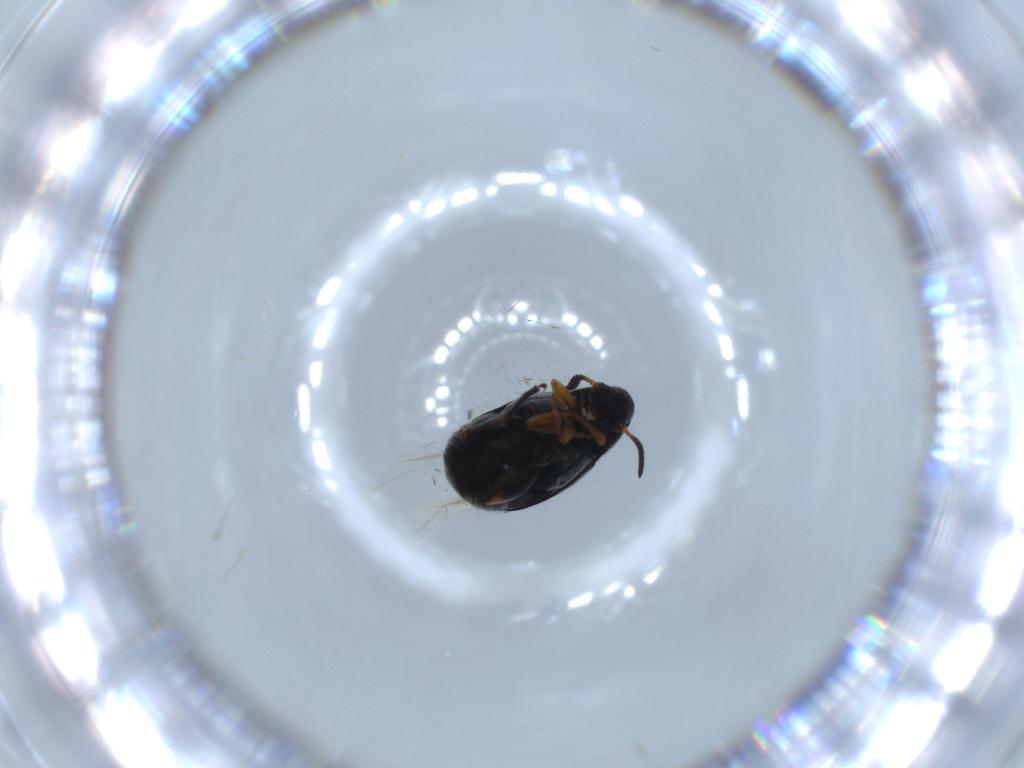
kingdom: Animalia
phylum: Arthropoda
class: Insecta
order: Coleoptera
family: Chrysomelidae
